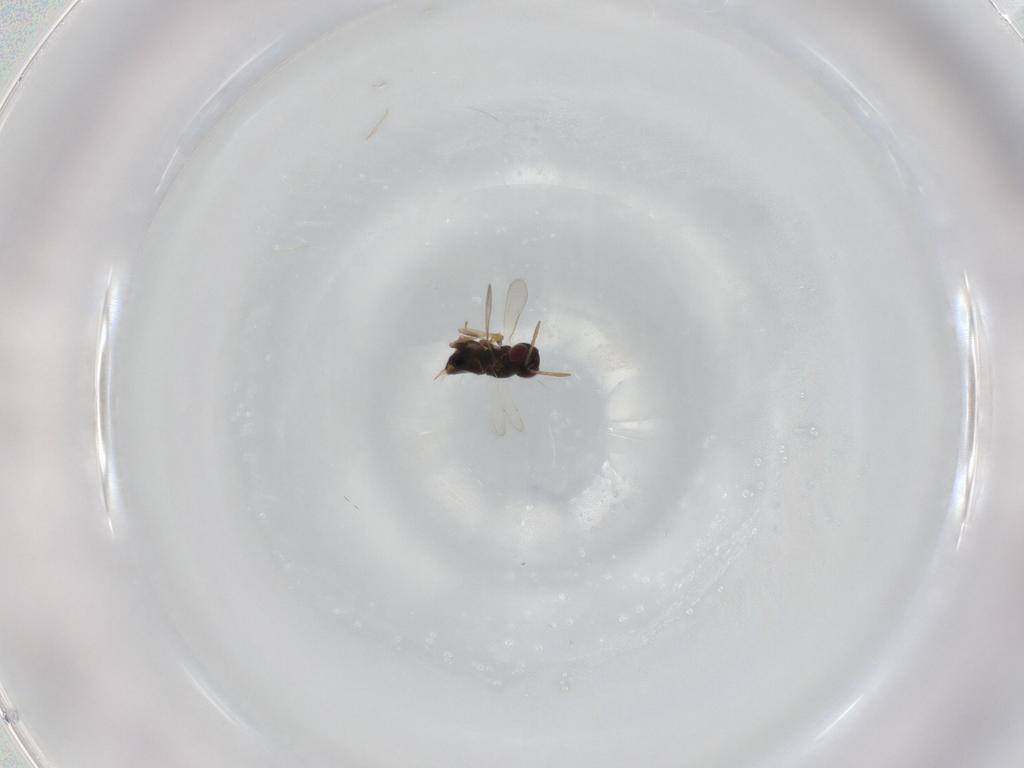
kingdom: Animalia
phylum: Arthropoda
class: Insecta
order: Hymenoptera
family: Aphelinidae
